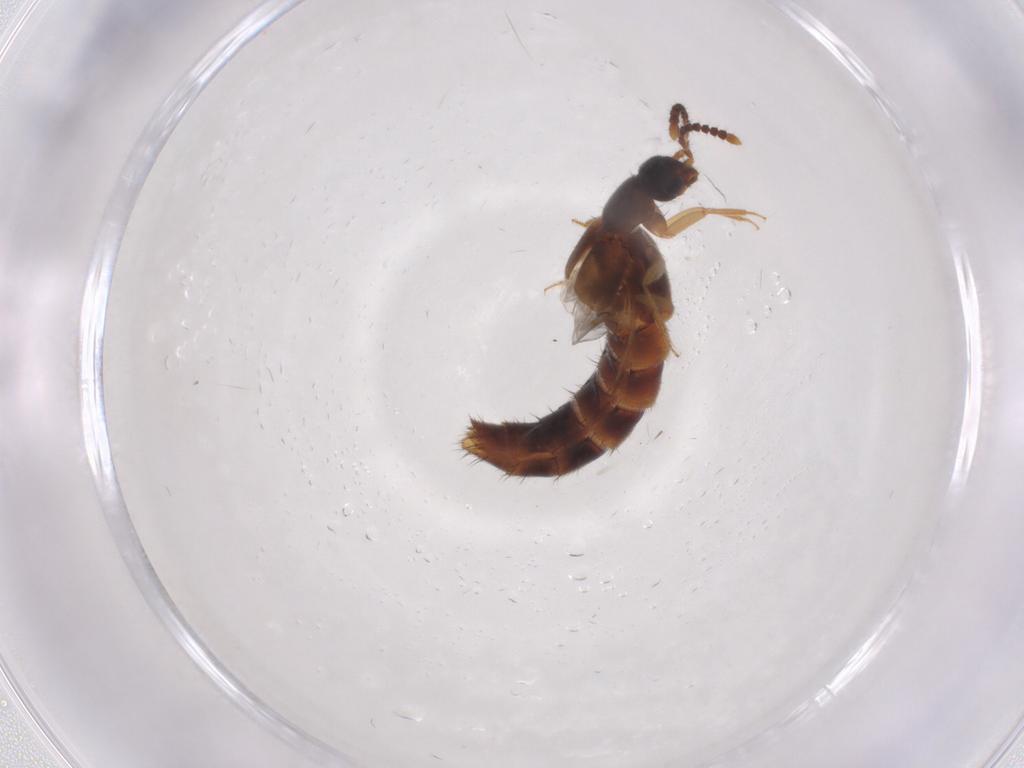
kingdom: Animalia
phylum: Arthropoda
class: Insecta
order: Coleoptera
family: Staphylinidae
